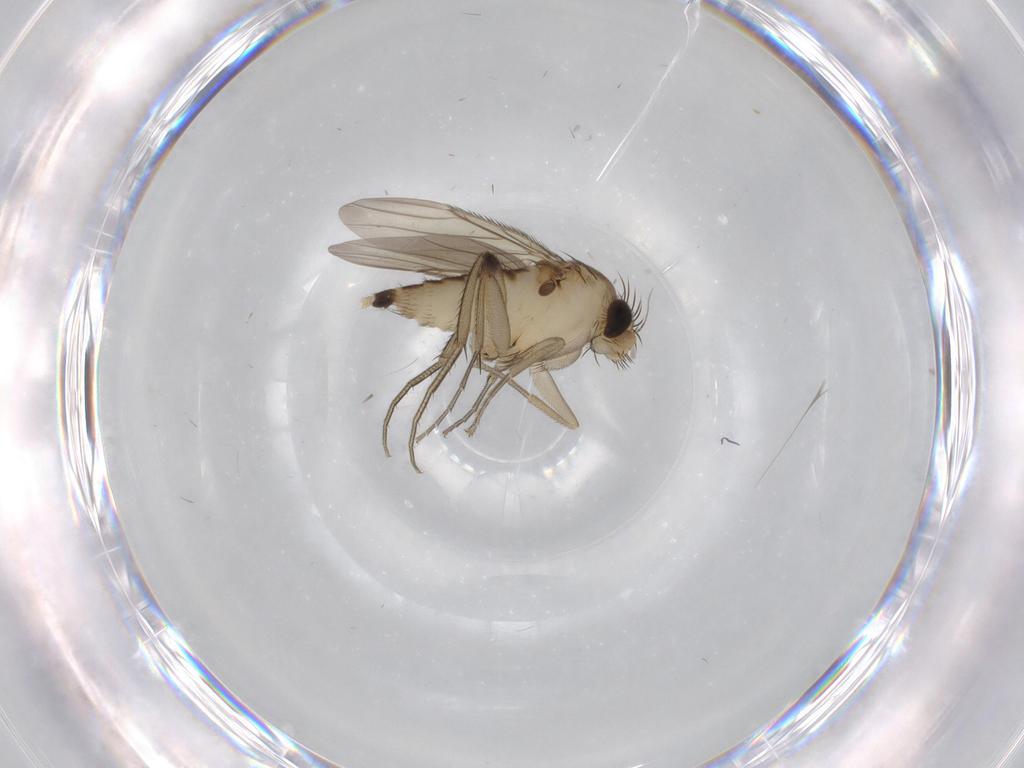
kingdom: Animalia
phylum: Arthropoda
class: Insecta
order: Diptera
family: Phoridae
